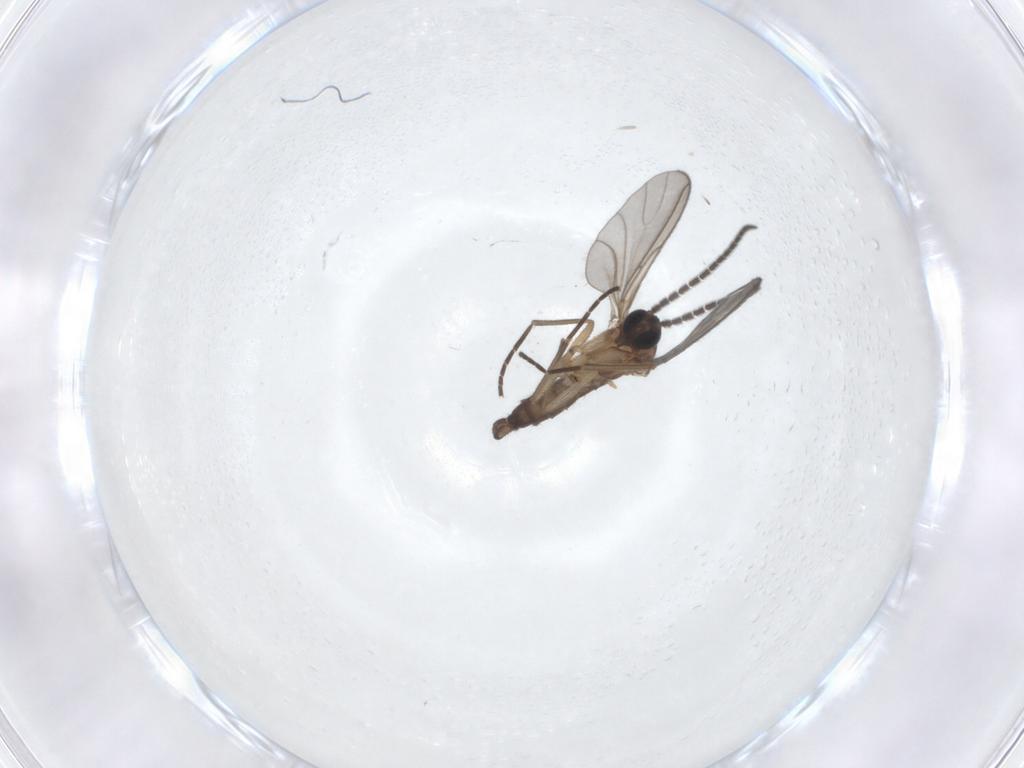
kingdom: Animalia
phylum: Arthropoda
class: Insecta
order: Diptera
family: Sciaridae
